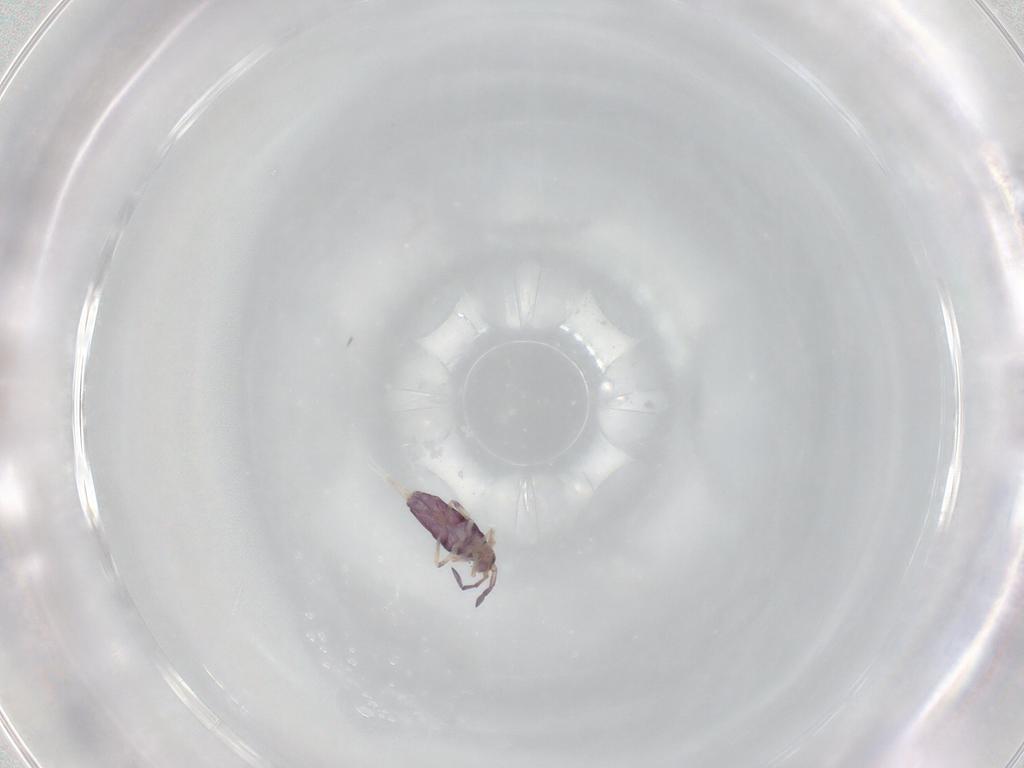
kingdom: Animalia
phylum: Arthropoda
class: Collembola
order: Entomobryomorpha
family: Entomobryidae
